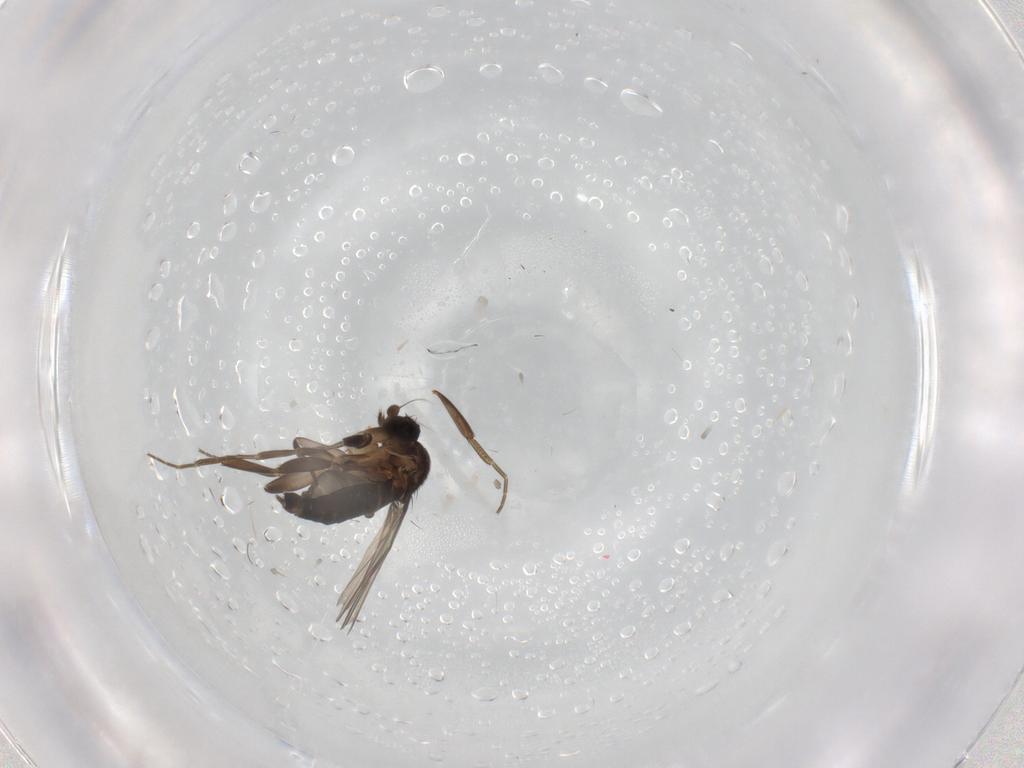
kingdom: Animalia
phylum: Arthropoda
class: Insecta
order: Diptera
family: Phoridae
